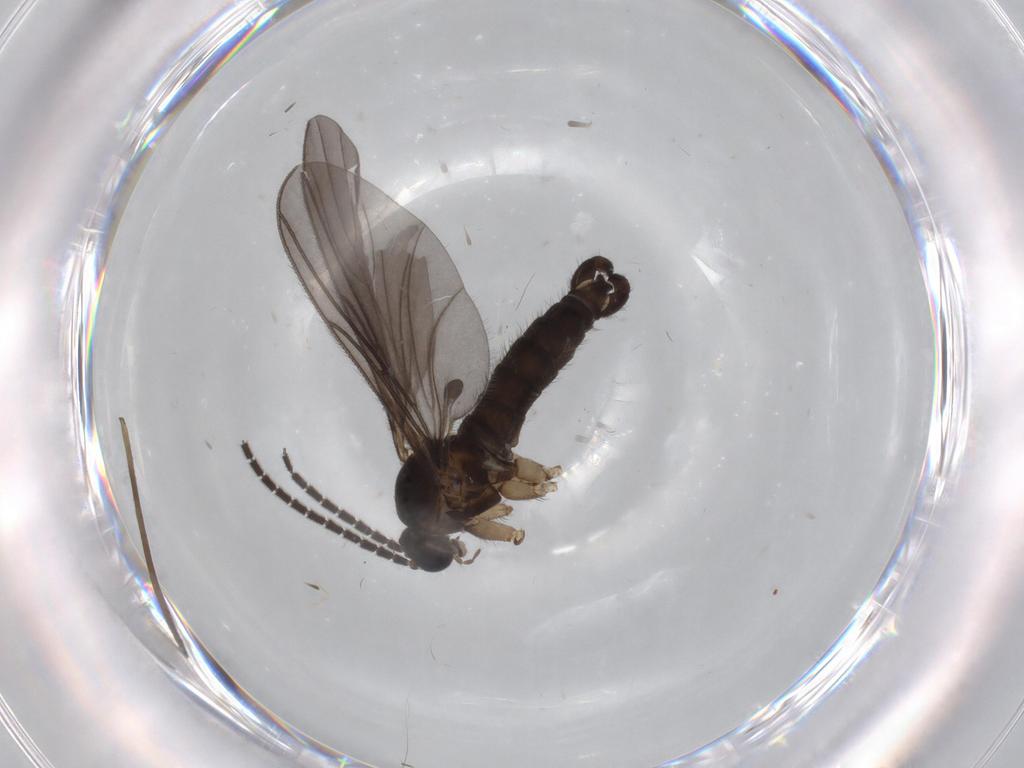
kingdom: Animalia
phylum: Arthropoda
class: Insecta
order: Diptera
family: Sciaridae
